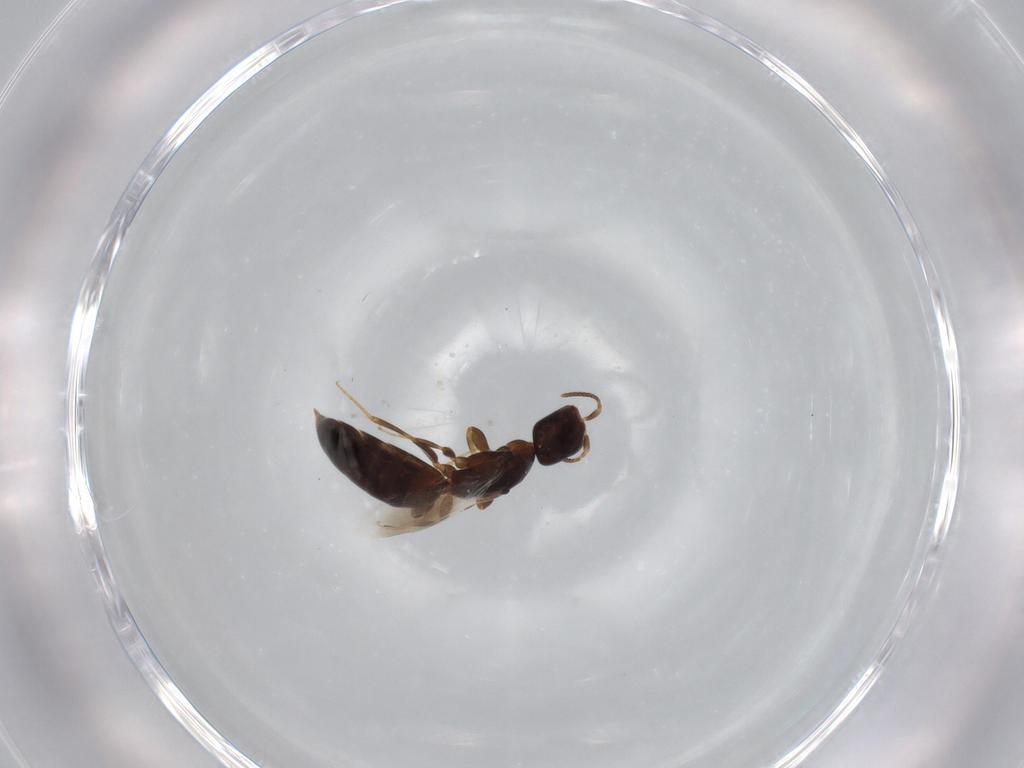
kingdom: Animalia
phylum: Arthropoda
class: Insecta
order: Hymenoptera
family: Bethylidae
